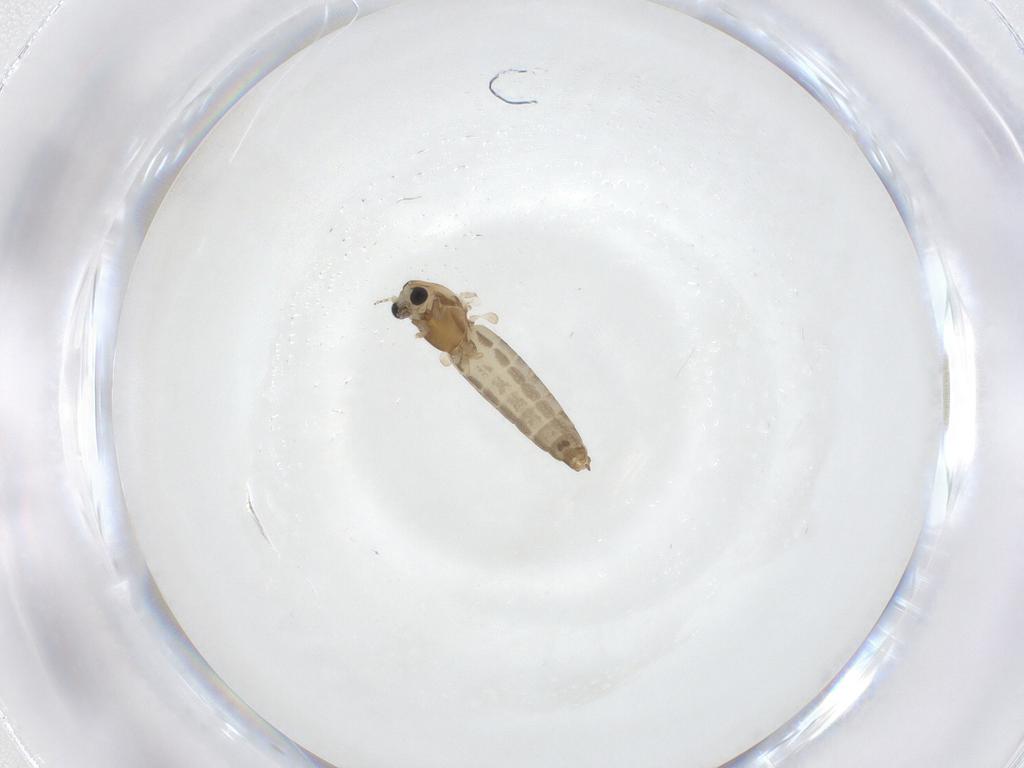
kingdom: Animalia
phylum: Arthropoda
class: Insecta
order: Diptera
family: Chironomidae
